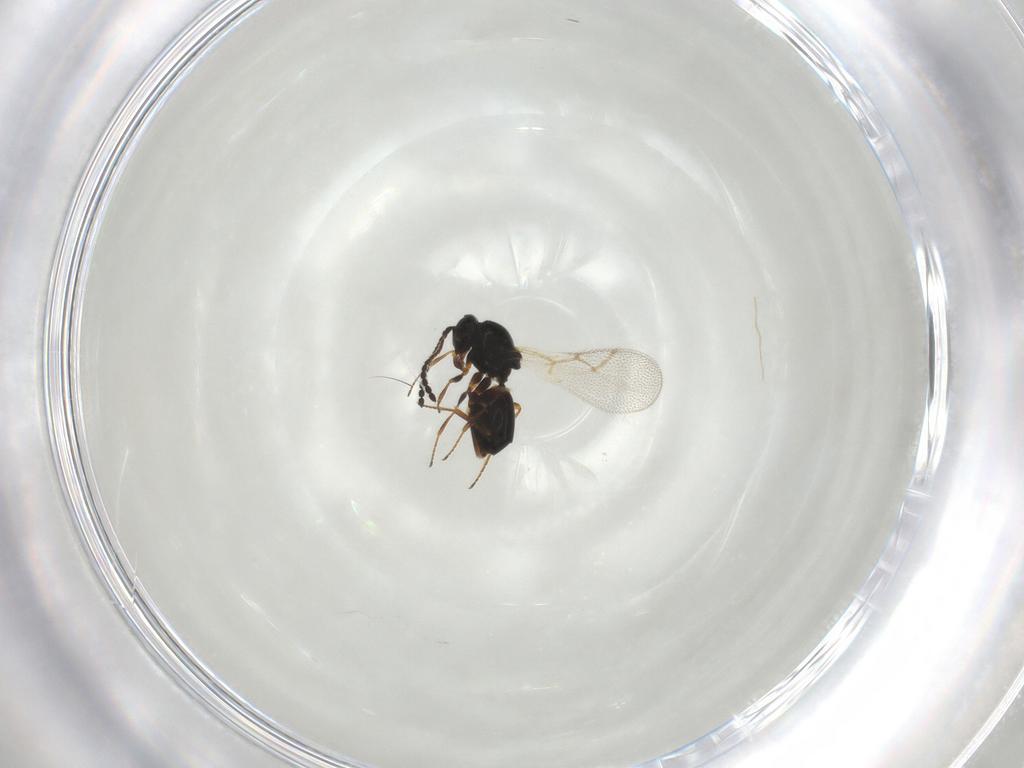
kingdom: Animalia
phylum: Arthropoda
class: Insecta
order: Hymenoptera
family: Figitidae
